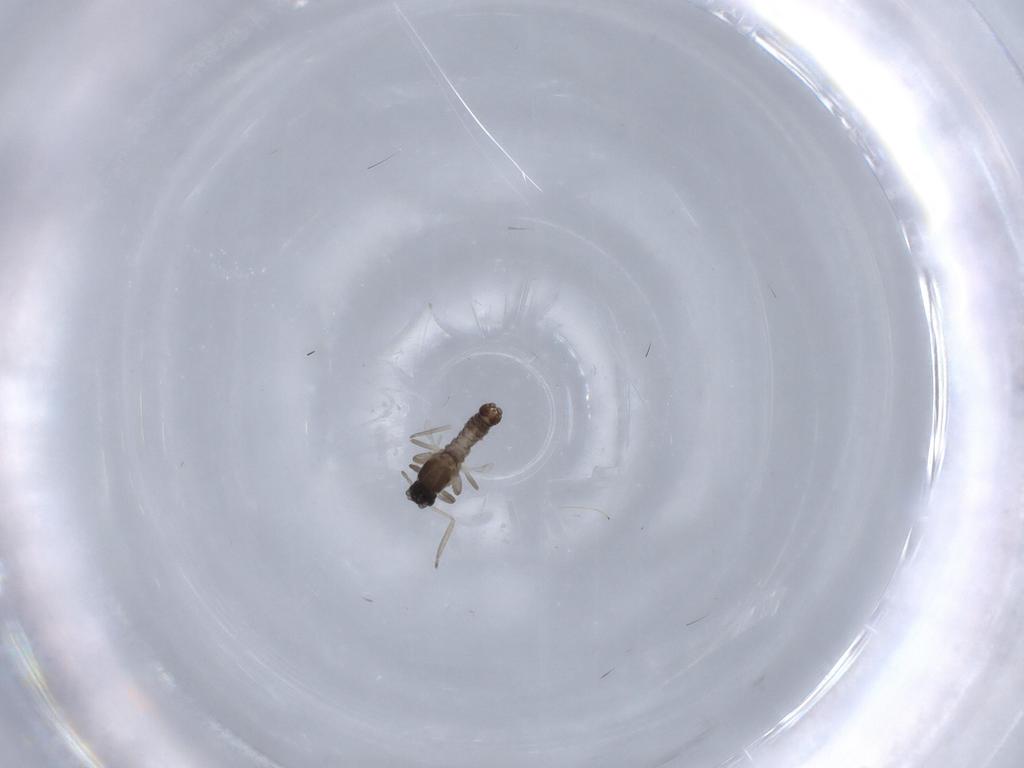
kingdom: Animalia
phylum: Arthropoda
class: Insecta
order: Diptera
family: Cecidomyiidae
